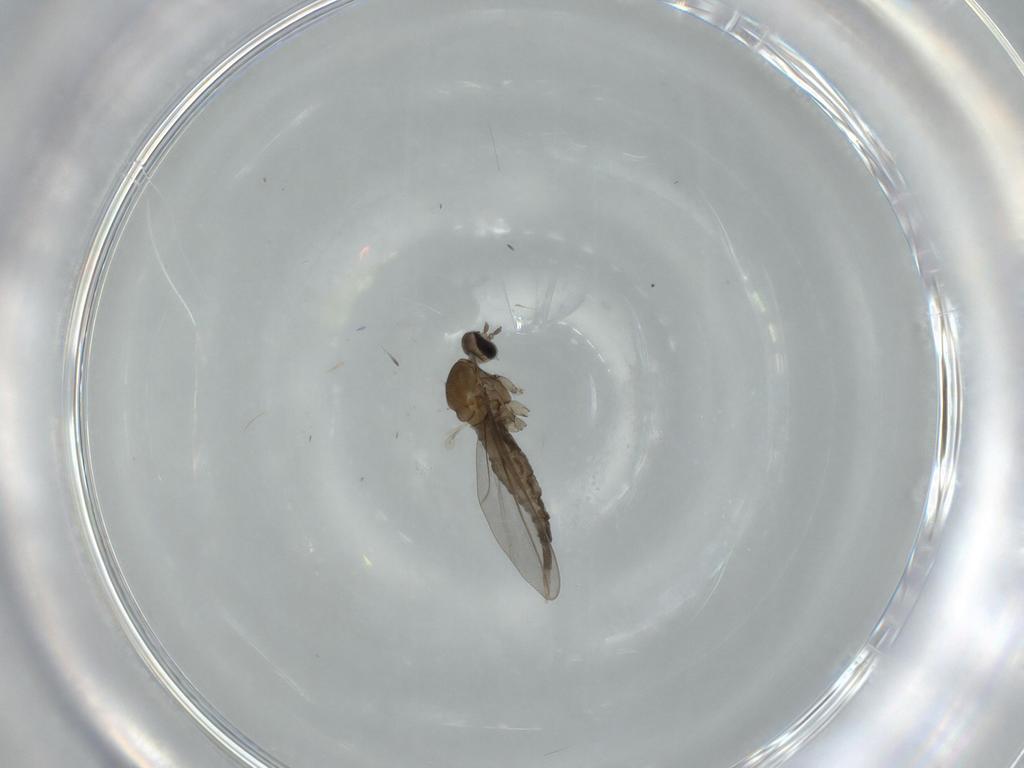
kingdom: Animalia
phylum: Arthropoda
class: Insecta
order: Diptera
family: Cecidomyiidae
